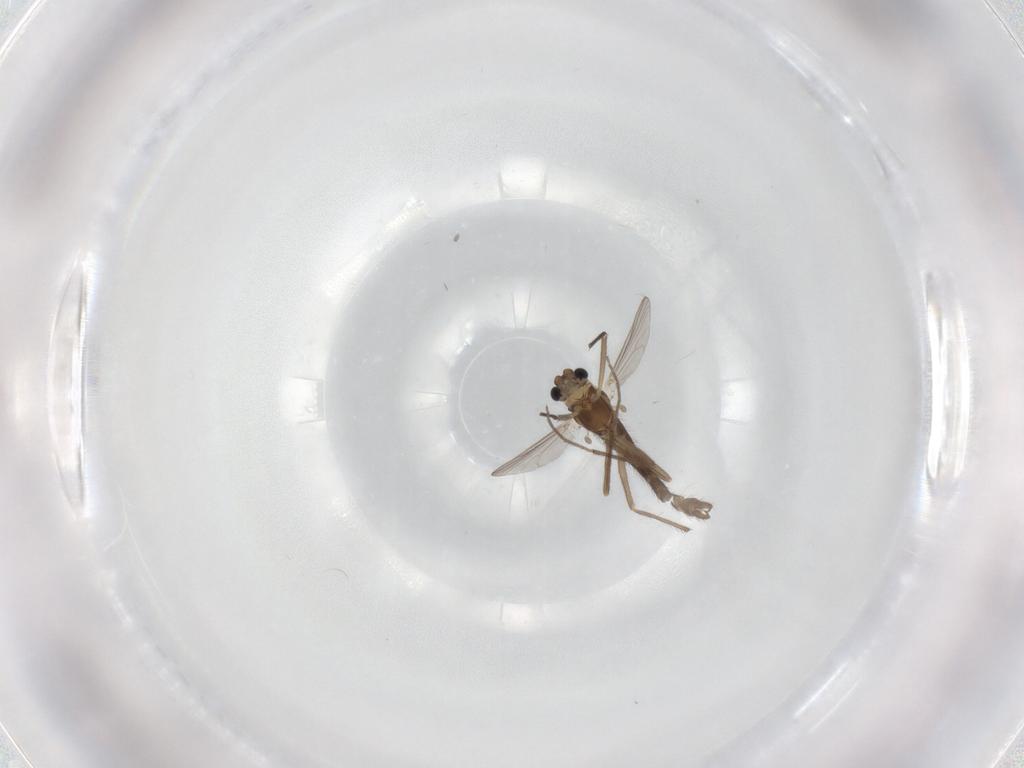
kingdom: Animalia
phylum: Arthropoda
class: Insecta
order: Diptera
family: Chironomidae
